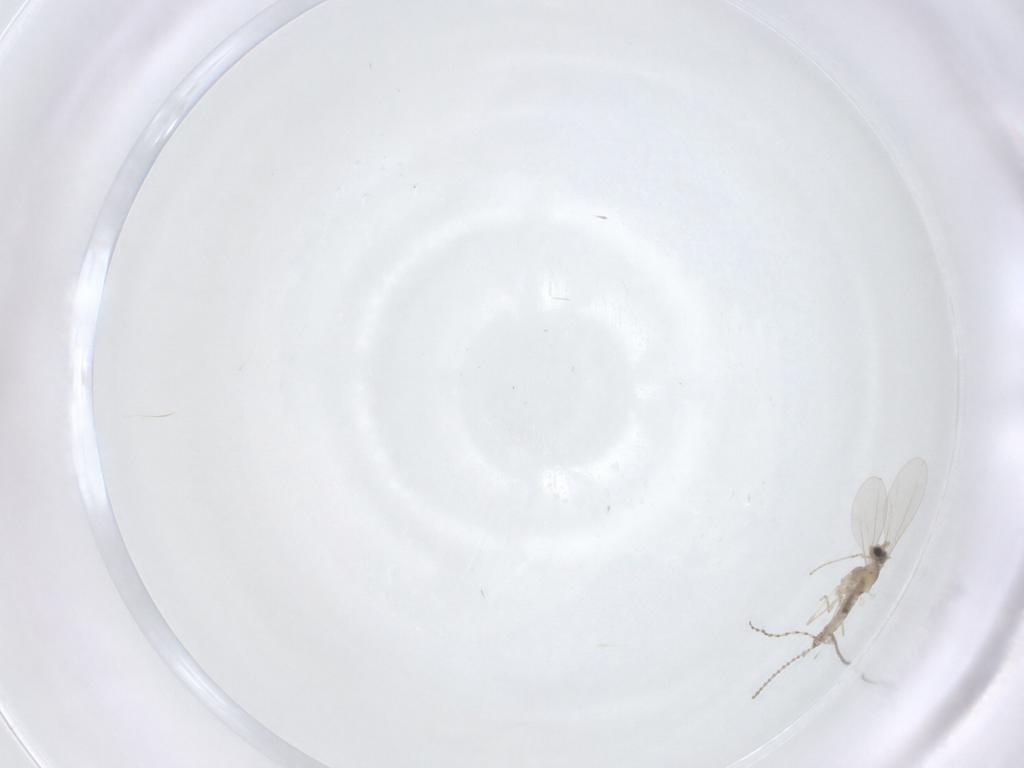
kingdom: Animalia
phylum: Arthropoda
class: Insecta
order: Diptera
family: Cecidomyiidae
